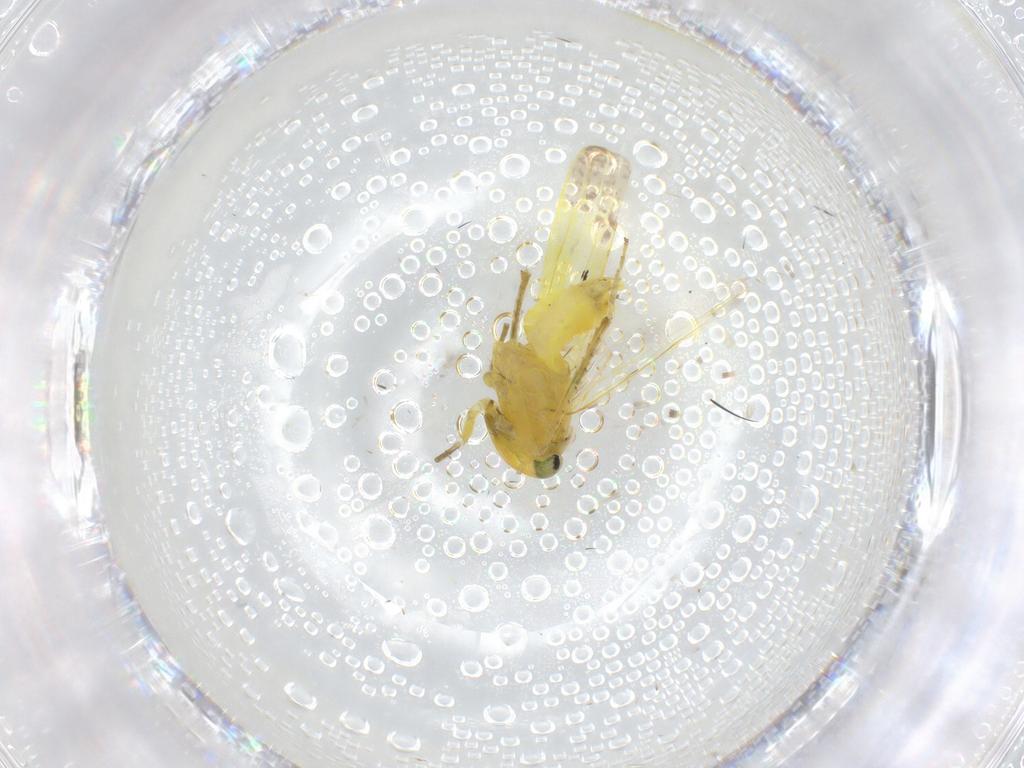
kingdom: Animalia
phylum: Arthropoda
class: Insecta
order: Hemiptera
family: Cicadellidae
